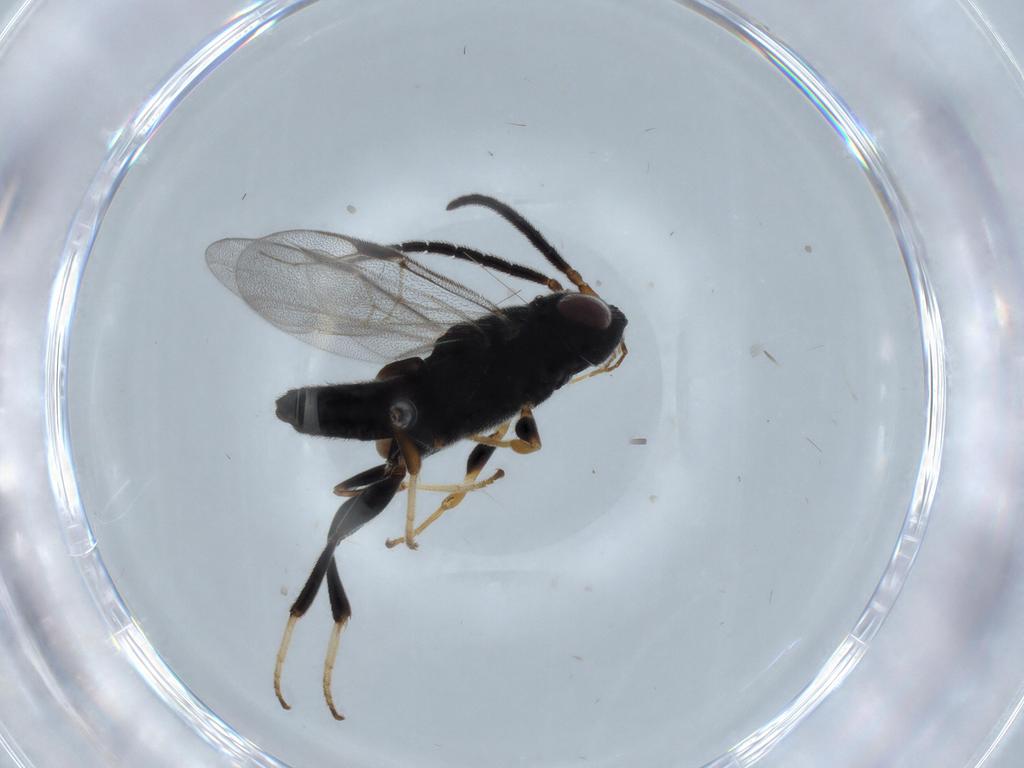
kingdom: Animalia
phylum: Arthropoda
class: Insecta
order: Hymenoptera
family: Dryinidae
